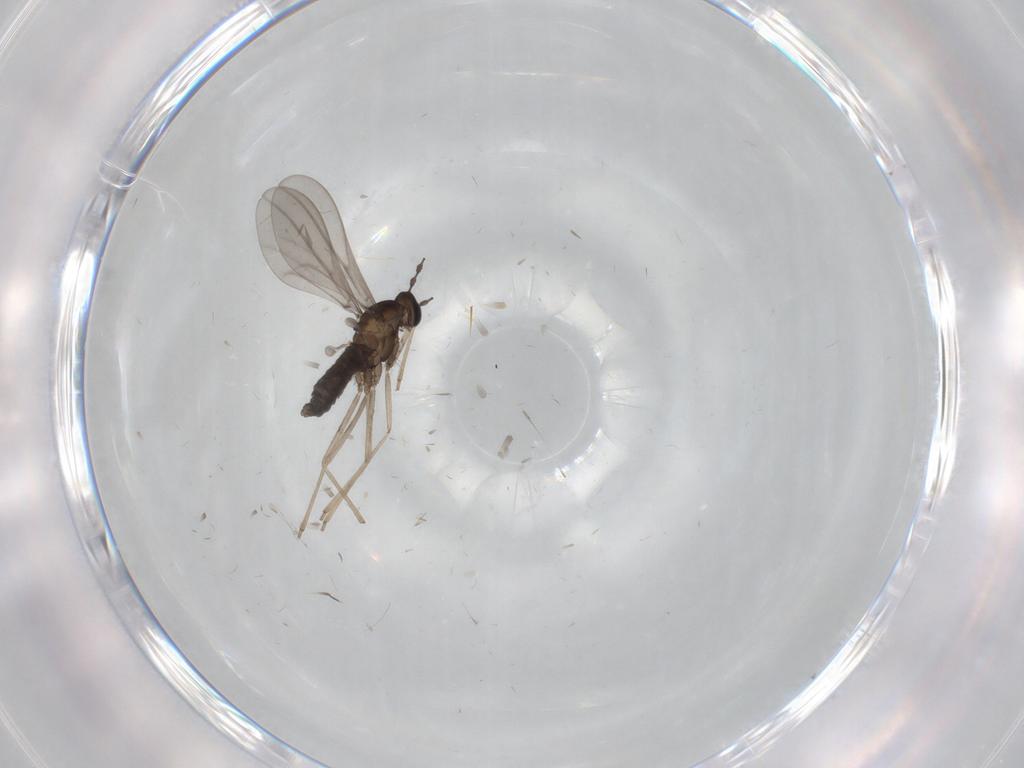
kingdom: Animalia
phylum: Arthropoda
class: Insecta
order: Diptera
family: Cecidomyiidae
